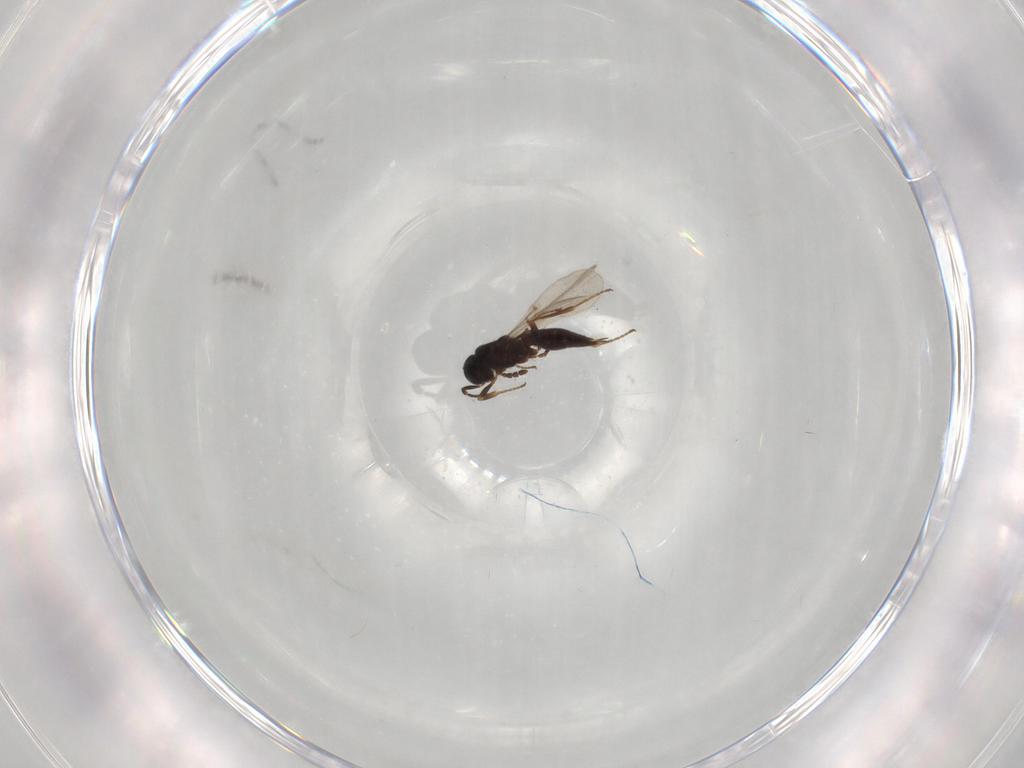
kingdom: Animalia
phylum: Arthropoda
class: Insecta
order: Hymenoptera
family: Platygastridae
